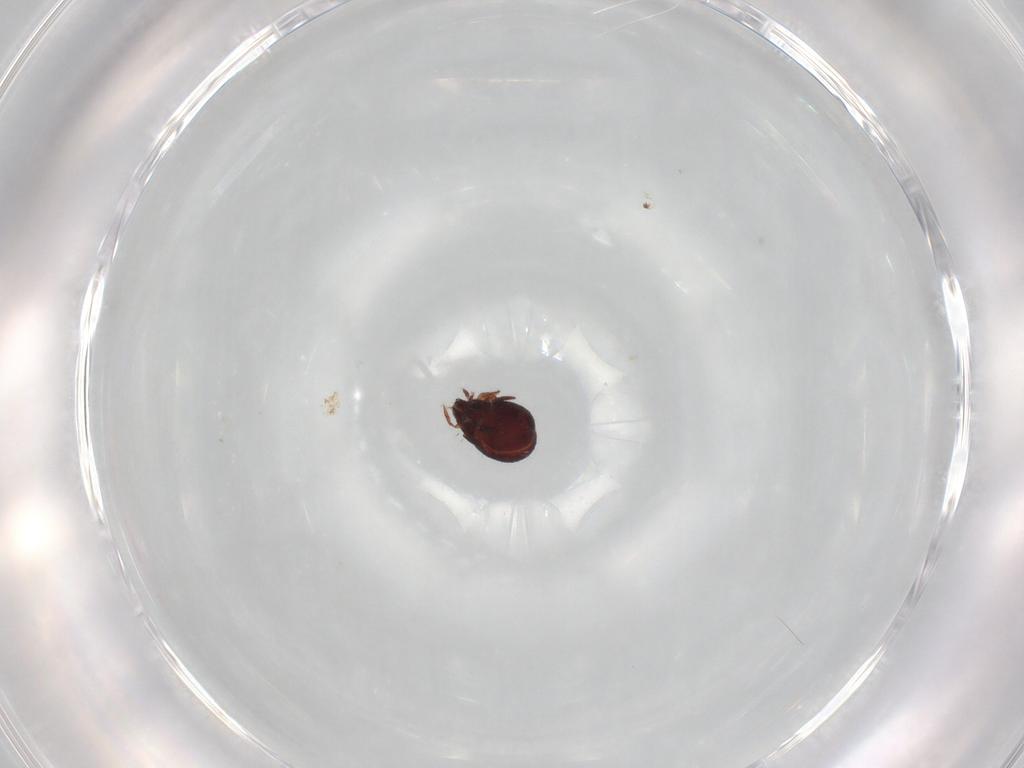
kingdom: Animalia
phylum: Arthropoda
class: Arachnida
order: Sarcoptiformes
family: Humerobatidae
